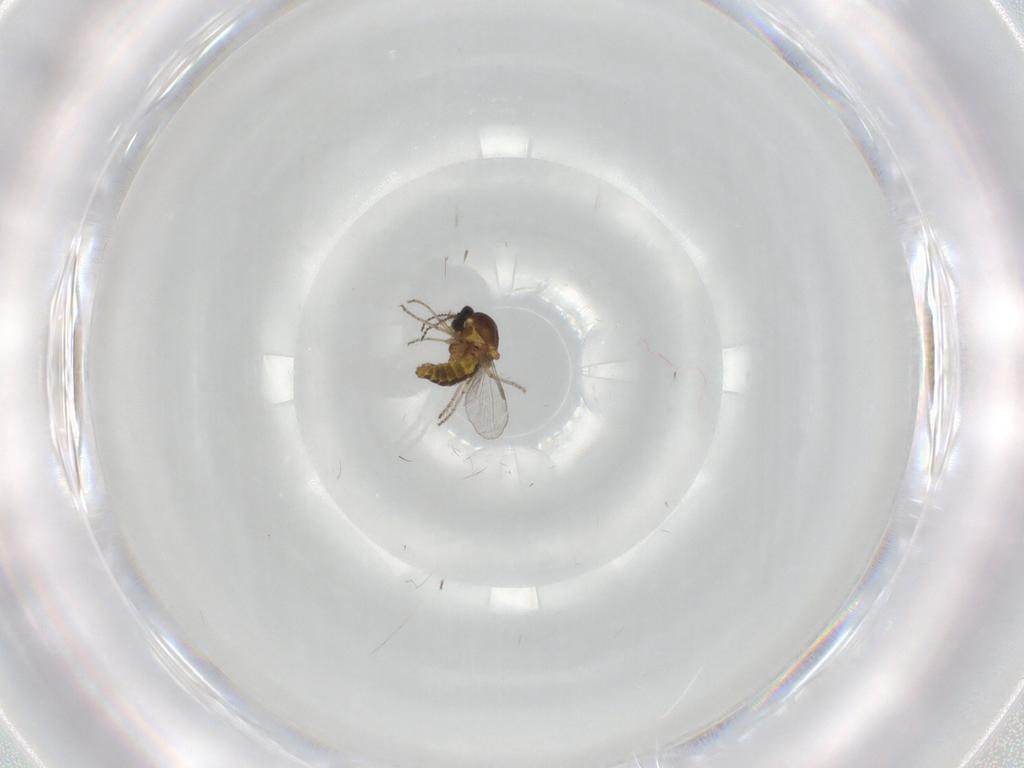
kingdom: Animalia
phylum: Arthropoda
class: Insecta
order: Diptera
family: Ceratopogonidae
